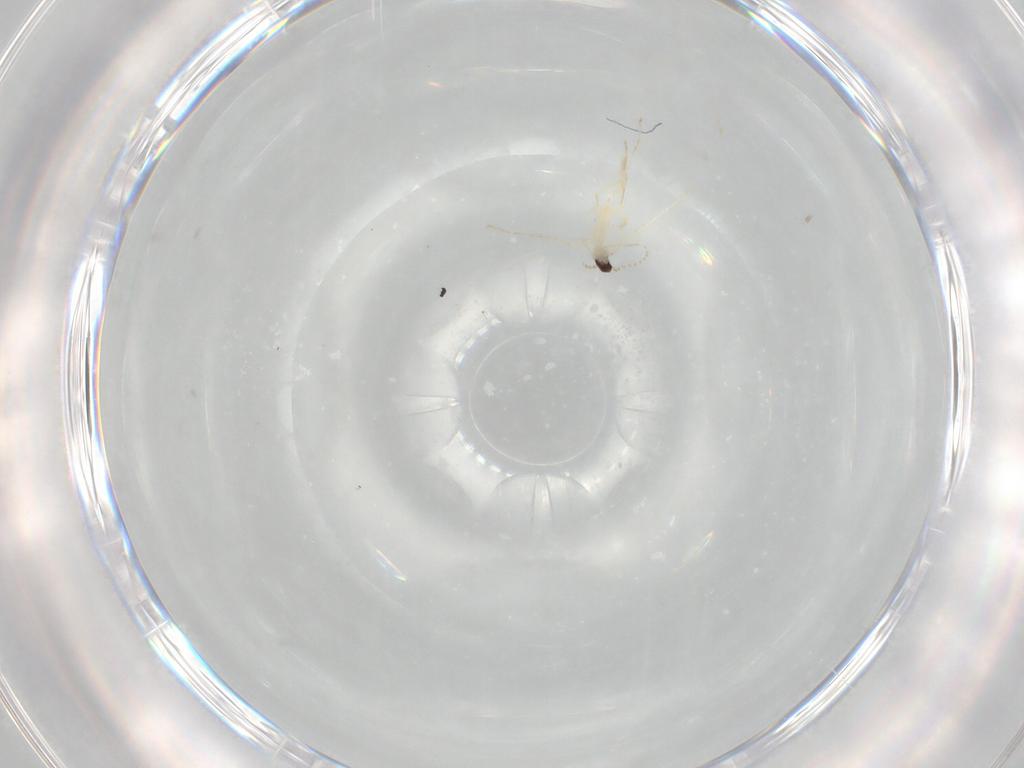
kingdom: Animalia
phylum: Arthropoda
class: Insecta
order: Diptera
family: Cecidomyiidae
